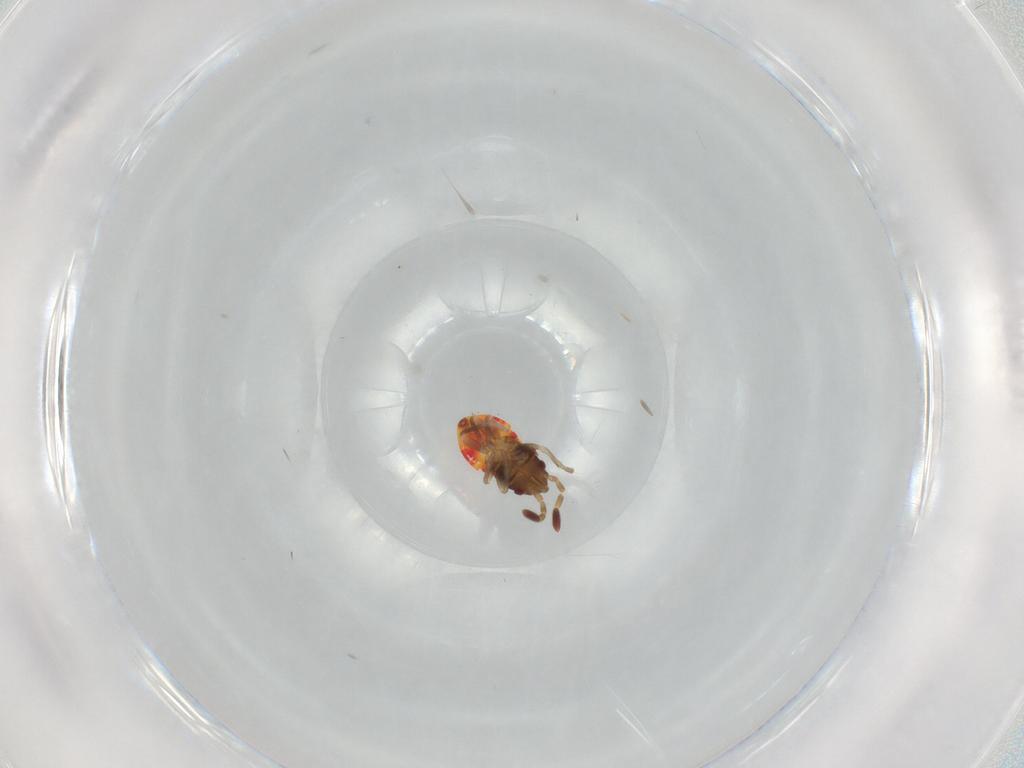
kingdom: Animalia
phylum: Arthropoda
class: Insecta
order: Hemiptera
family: Rhyparochromidae
